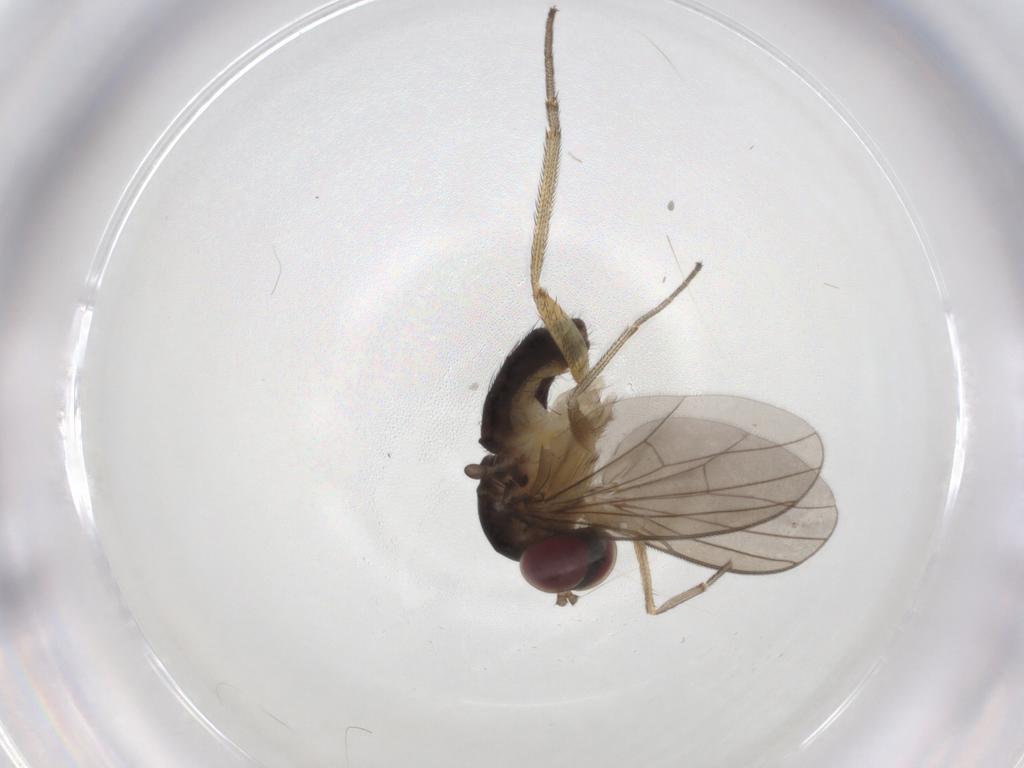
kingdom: Animalia
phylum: Arthropoda
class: Insecta
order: Diptera
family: Dolichopodidae
